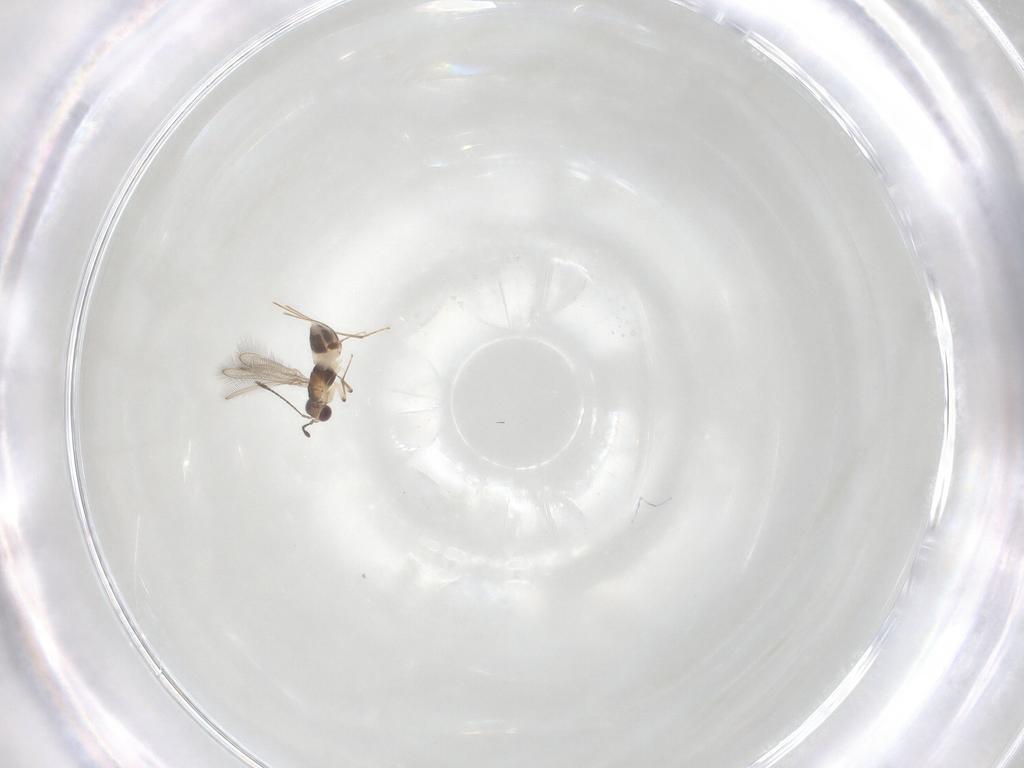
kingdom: Animalia
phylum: Arthropoda
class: Insecta
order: Hymenoptera
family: Mymaridae
